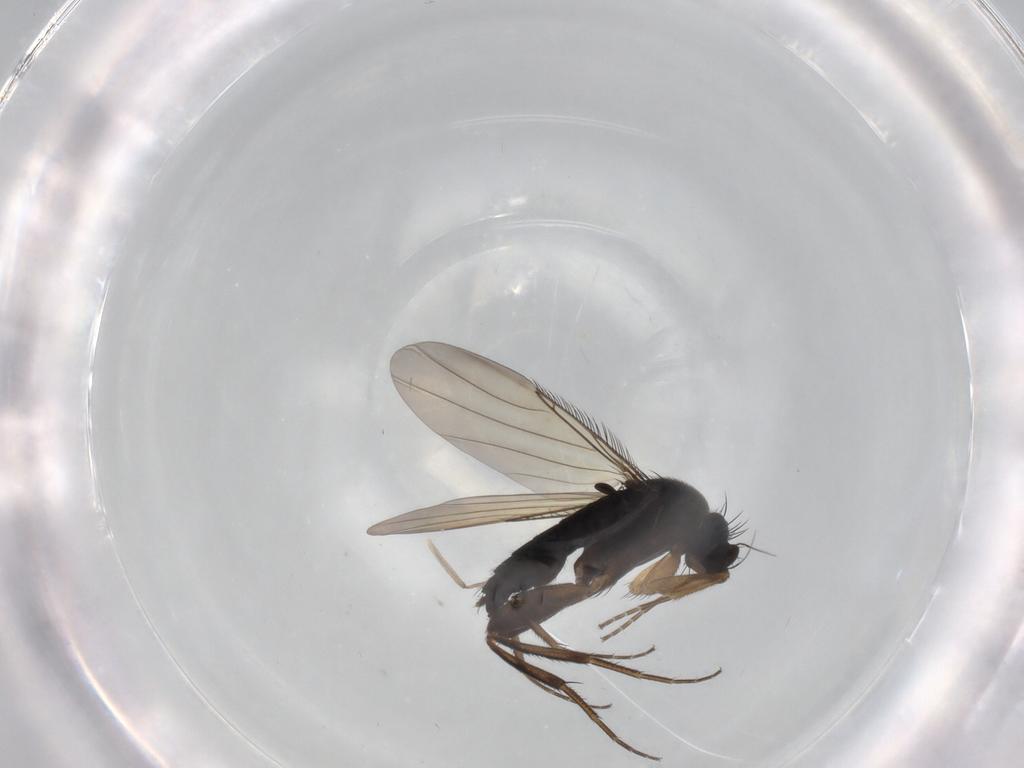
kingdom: Animalia
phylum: Arthropoda
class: Insecta
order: Diptera
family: Phoridae
